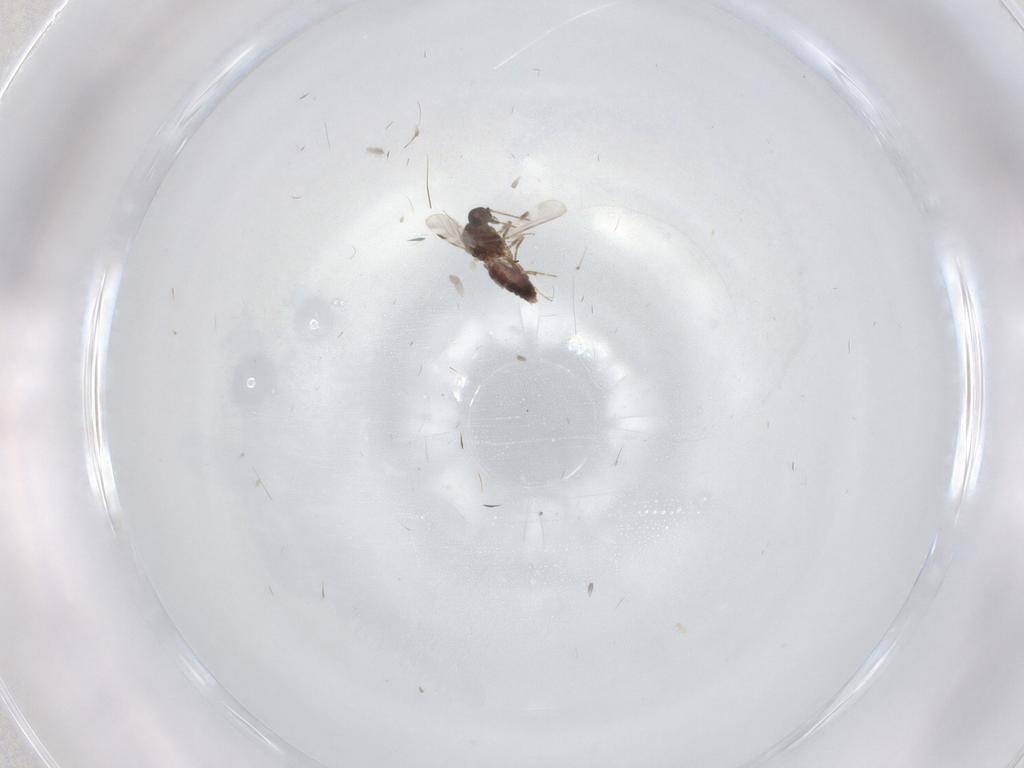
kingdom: Animalia
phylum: Arthropoda
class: Insecta
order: Diptera
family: Clusiidae
